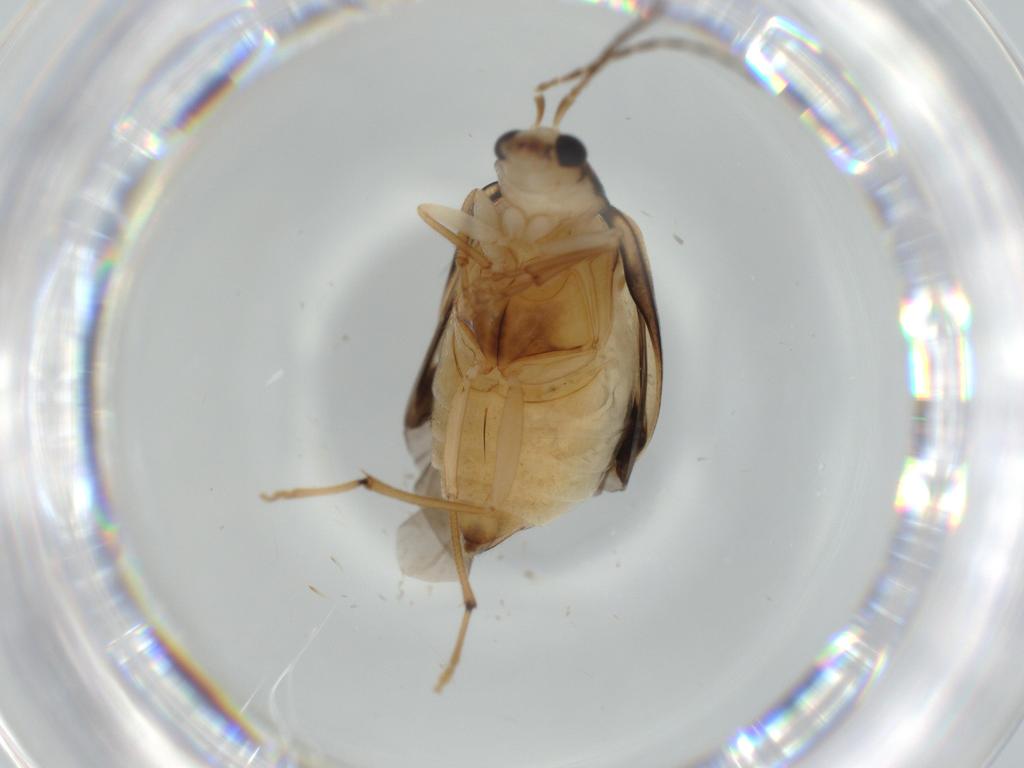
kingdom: Animalia
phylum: Arthropoda
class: Insecta
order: Coleoptera
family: Chrysomelidae
